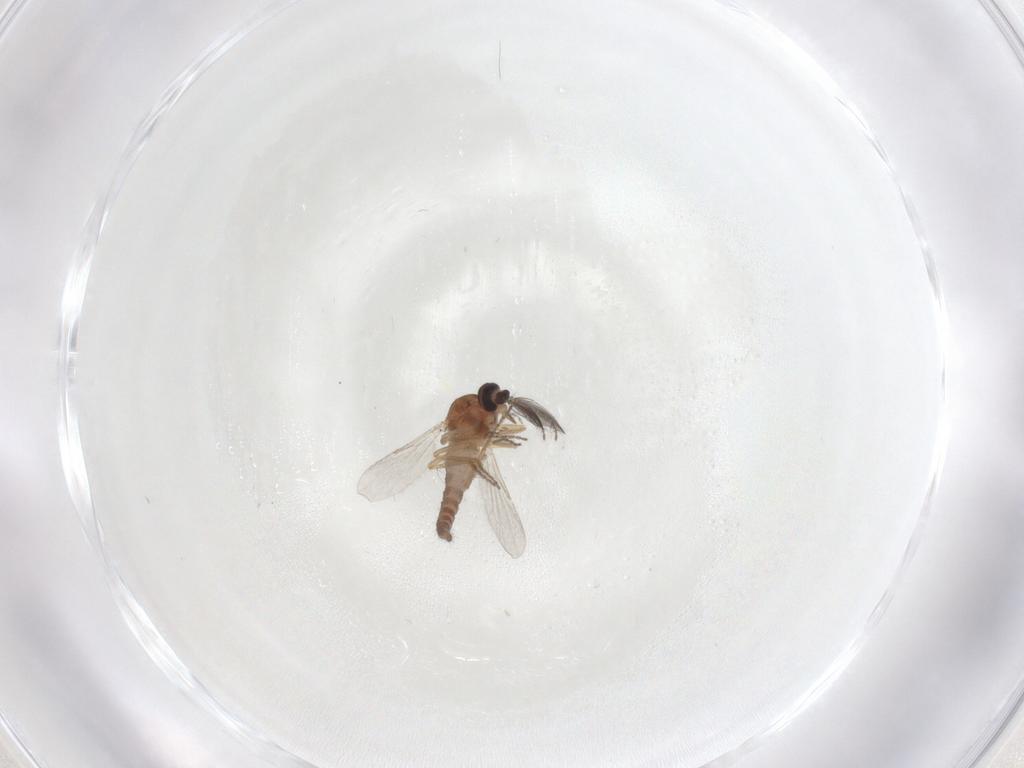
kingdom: Animalia
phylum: Arthropoda
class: Insecta
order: Diptera
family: Ceratopogonidae
